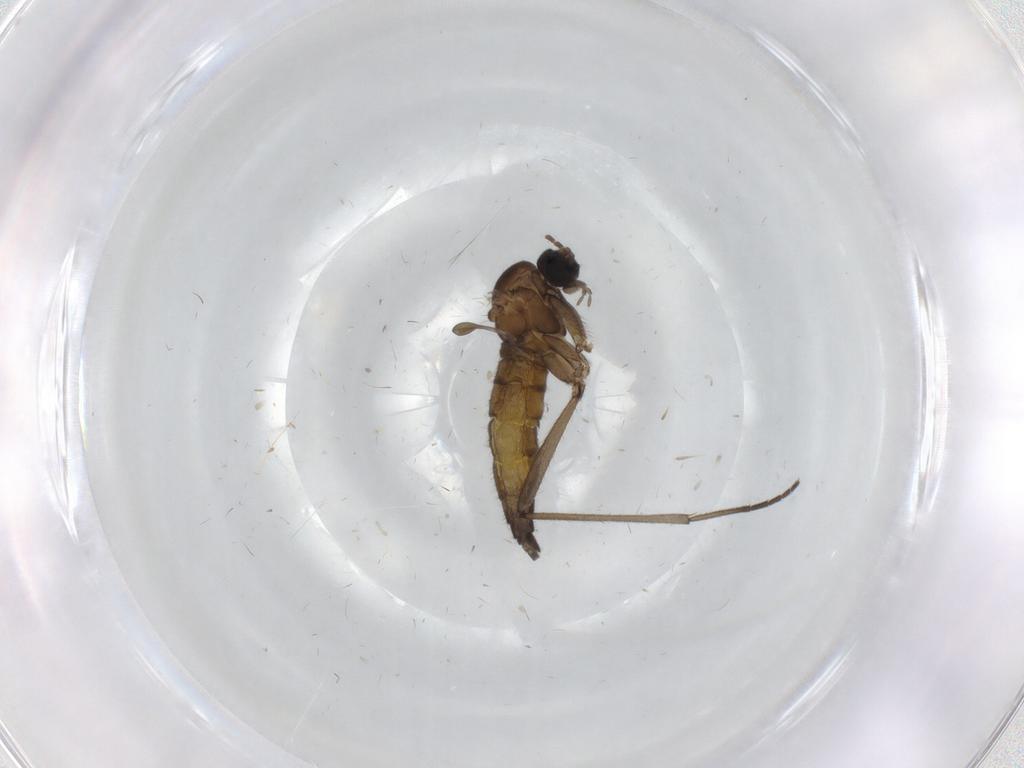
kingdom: Animalia
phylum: Arthropoda
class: Insecta
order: Diptera
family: Sciaridae
